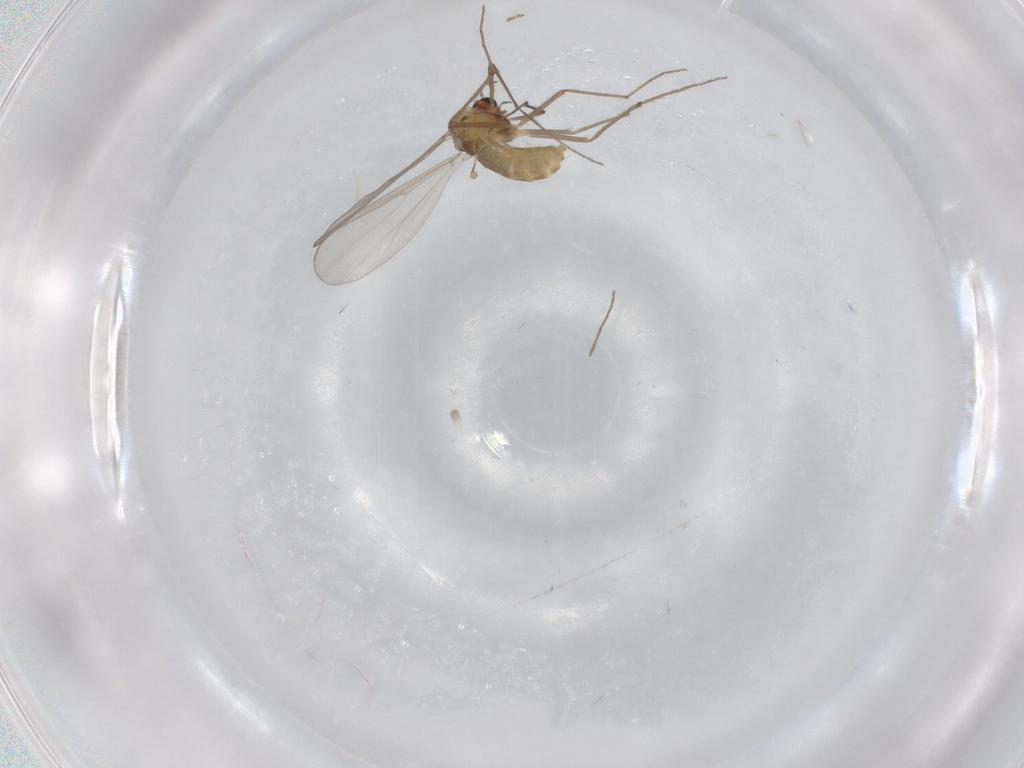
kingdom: Animalia
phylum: Arthropoda
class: Insecta
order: Diptera
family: Cecidomyiidae
